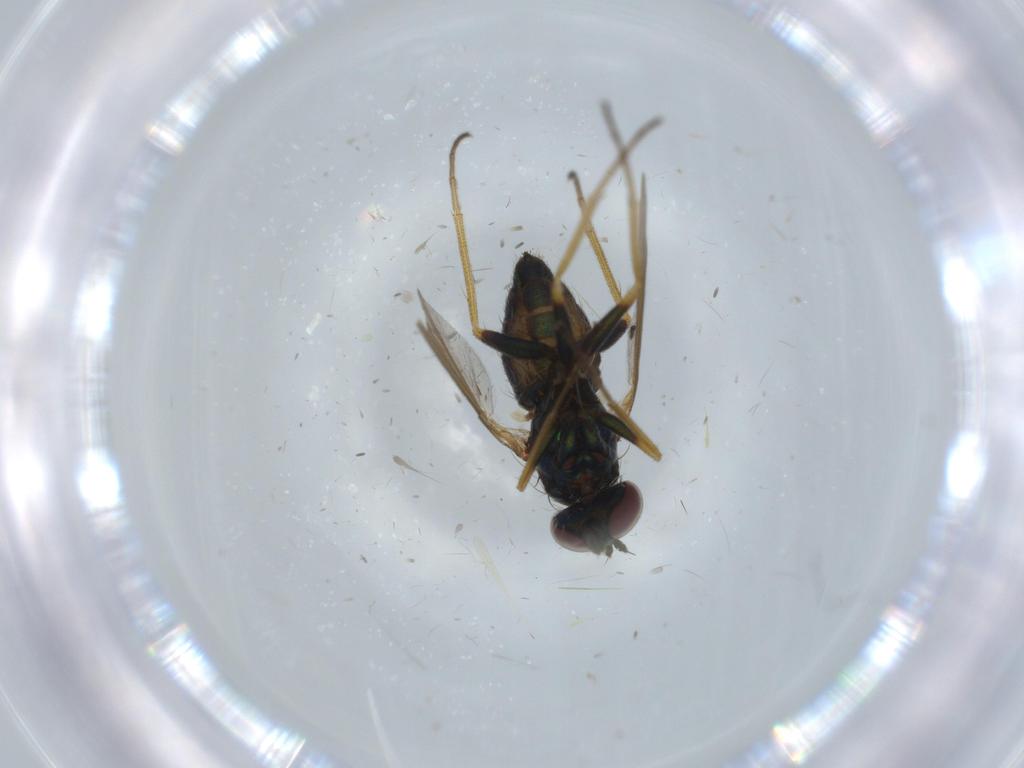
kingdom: Animalia
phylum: Arthropoda
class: Insecta
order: Diptera
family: Dolichopodidae
